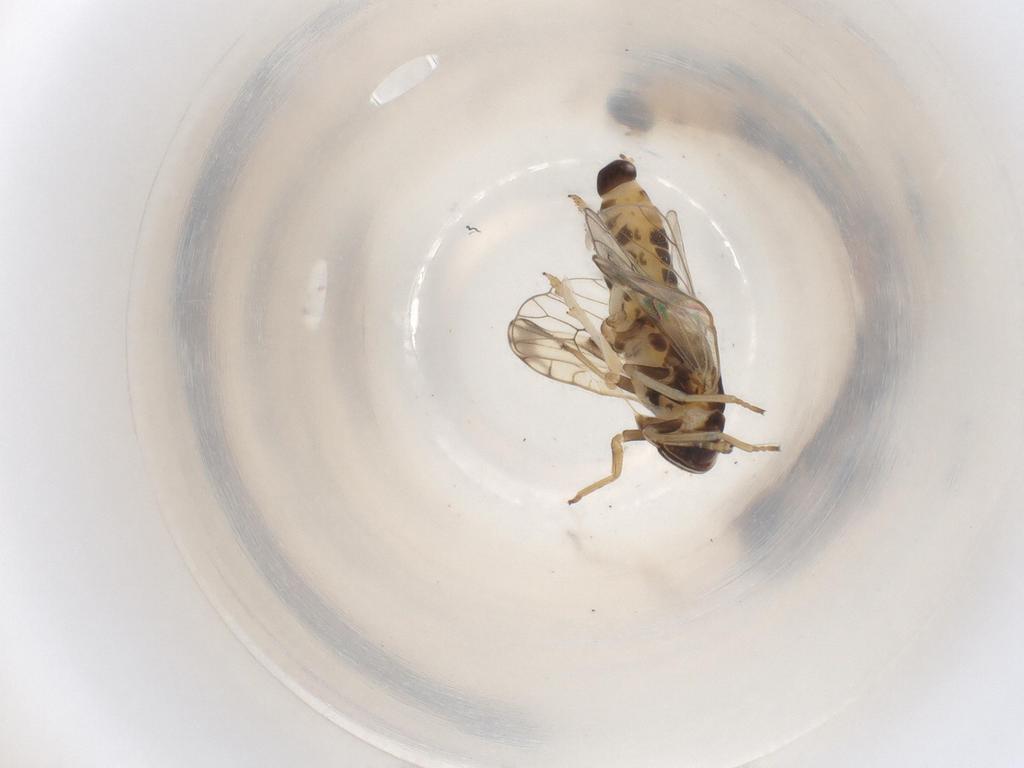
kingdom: Animalia
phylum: Arthropoda
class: Insecta
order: Hemiptera
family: Delphacidae
